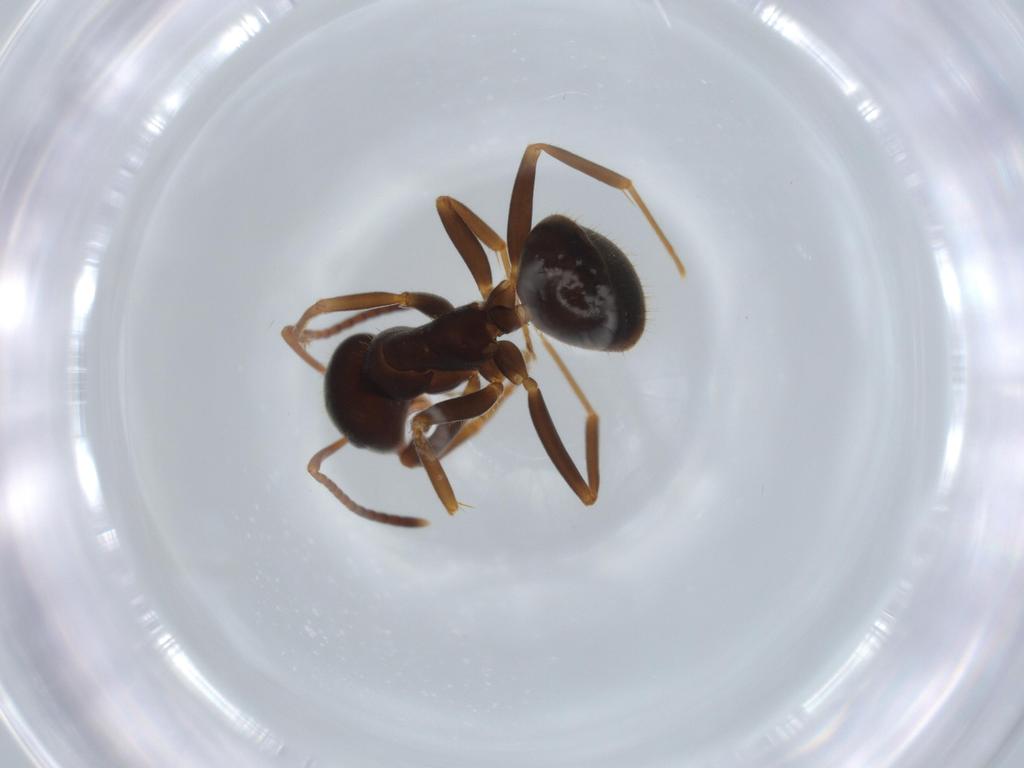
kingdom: Animalia
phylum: Arthropoda
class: Insecta
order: Hymenoptera
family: Formicidae
